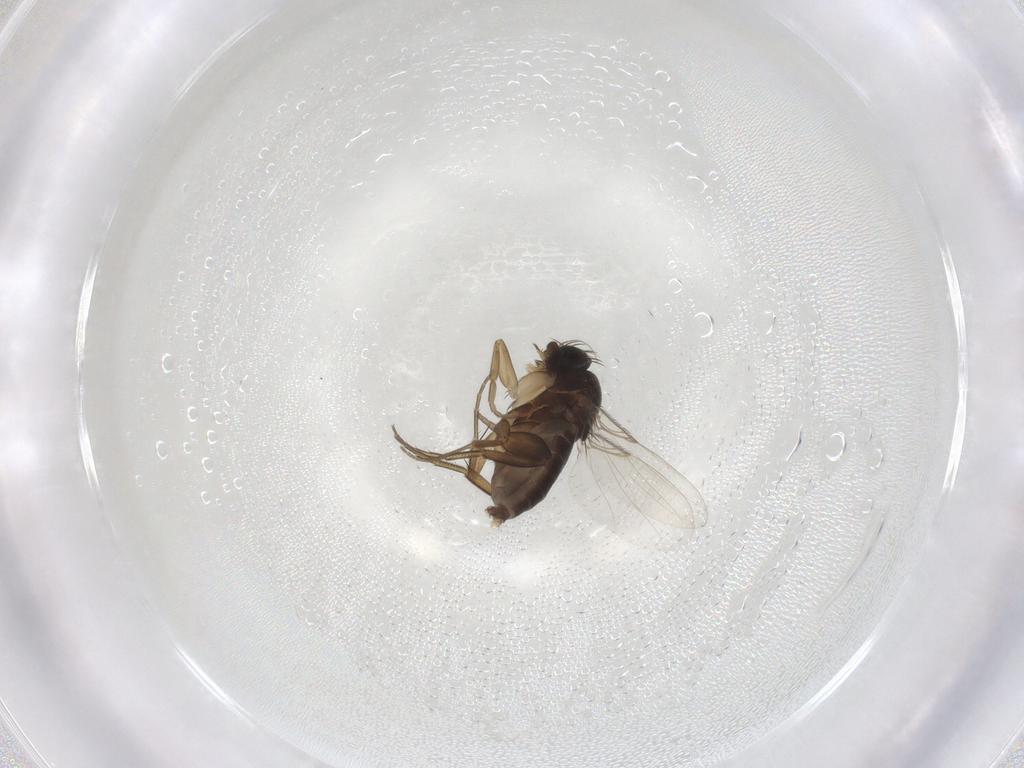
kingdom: Animalia
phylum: Arthropoda
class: Insecta
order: Diptera
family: Phoridae
